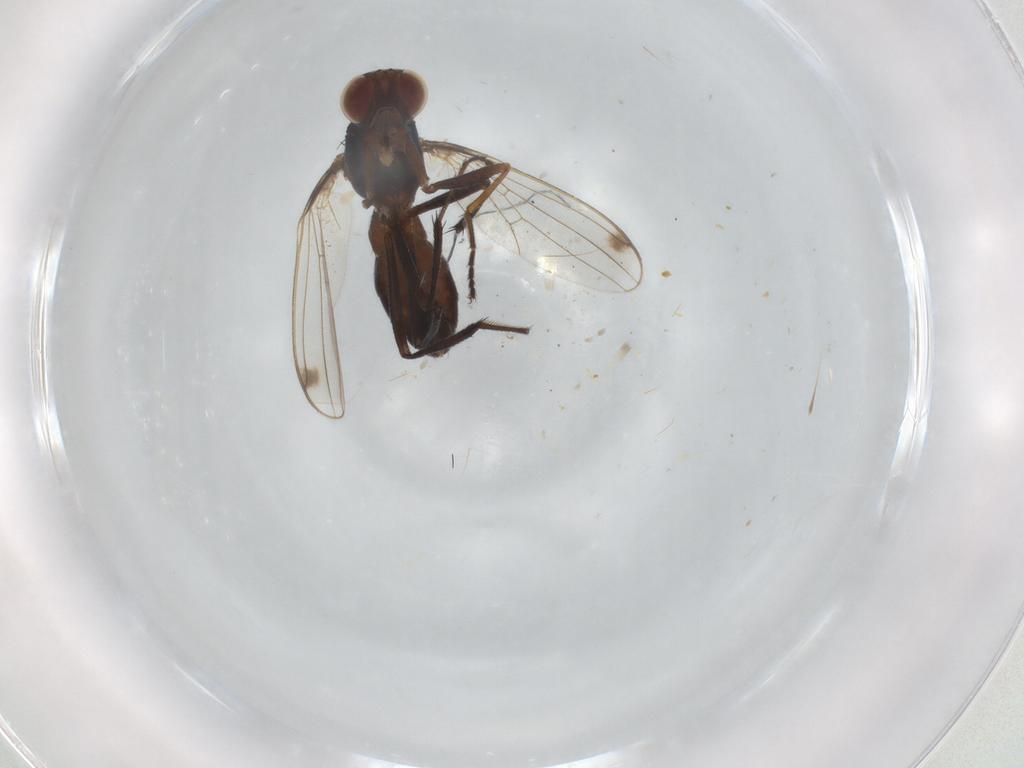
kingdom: Animalia
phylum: Arthropoda
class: Insecta
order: Diptera
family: Sepsidae
